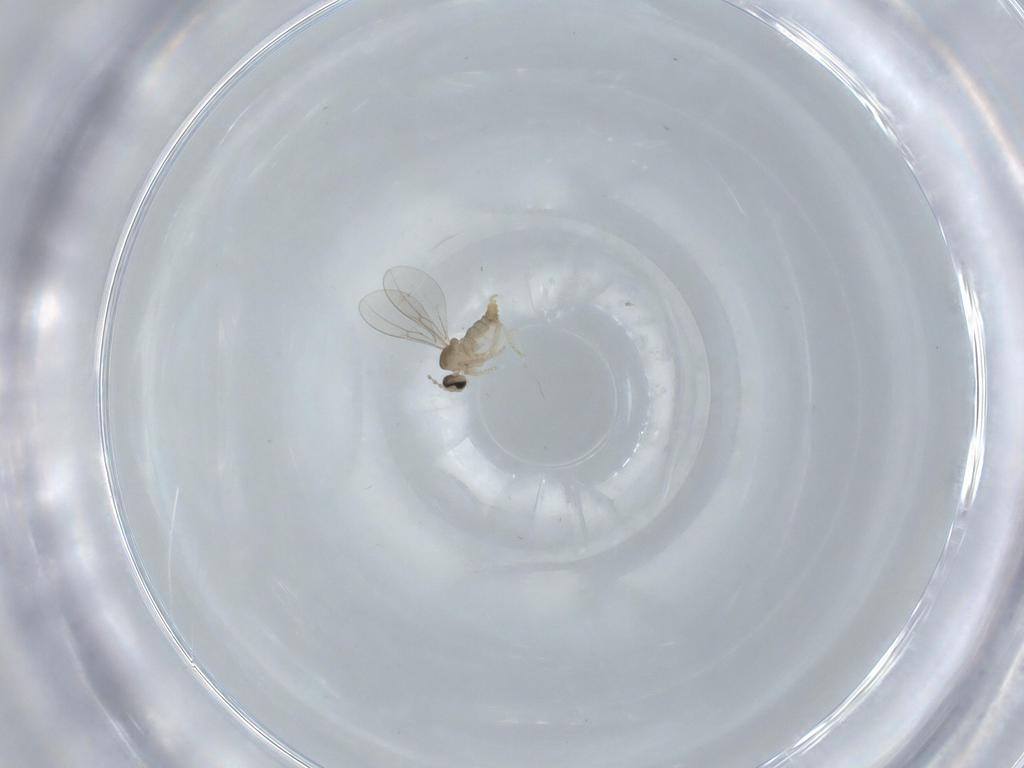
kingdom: Animalia
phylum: Arthropoda
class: Insecta
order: Diptera
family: Cecidomyiidae
